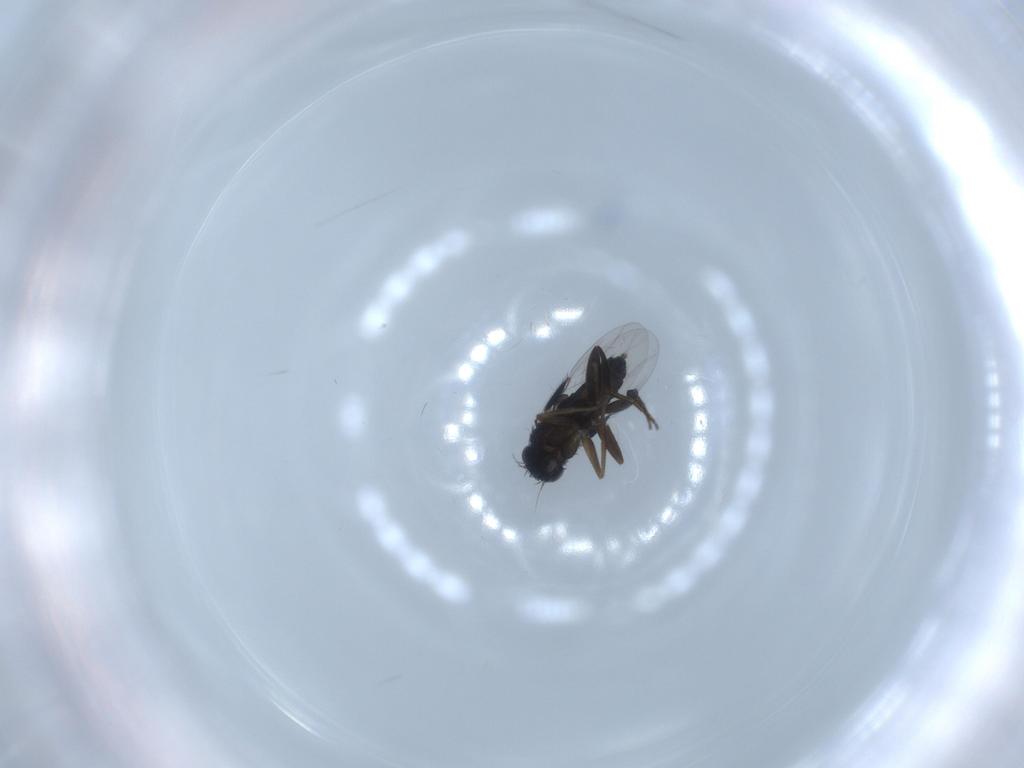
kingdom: Animalia
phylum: Arthropoda
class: Insecta
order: Diptera
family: Phoridae
